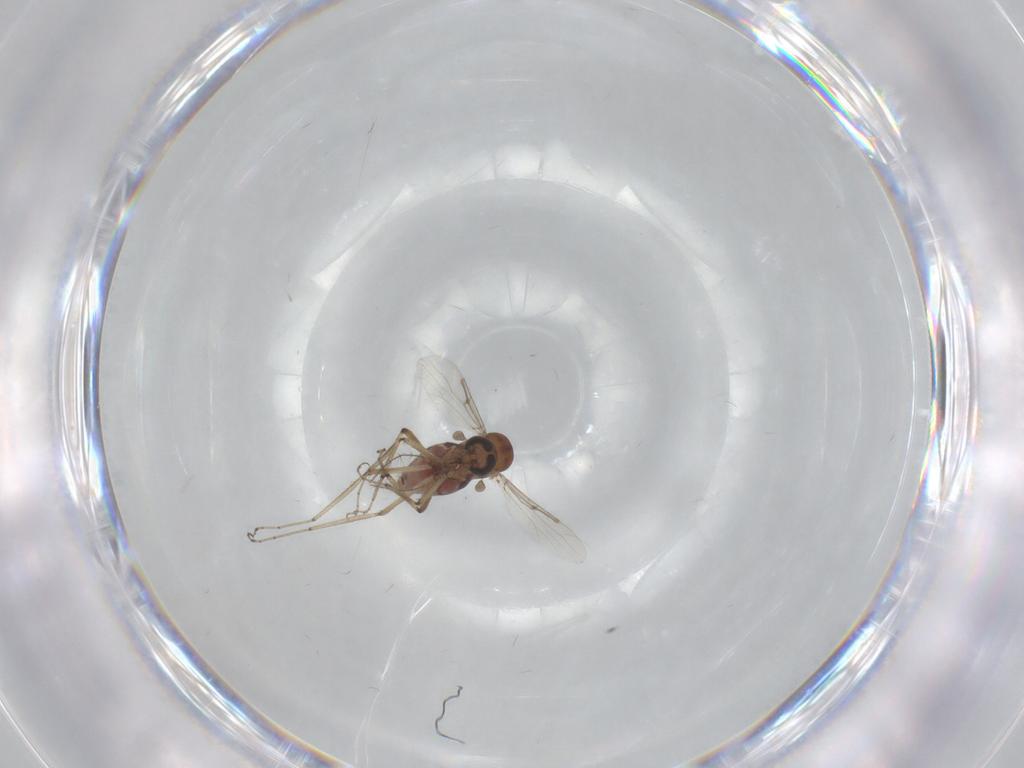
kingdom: Animalia
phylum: Arthropoda
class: Insecta
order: Diptera
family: Ceratopogonidae
